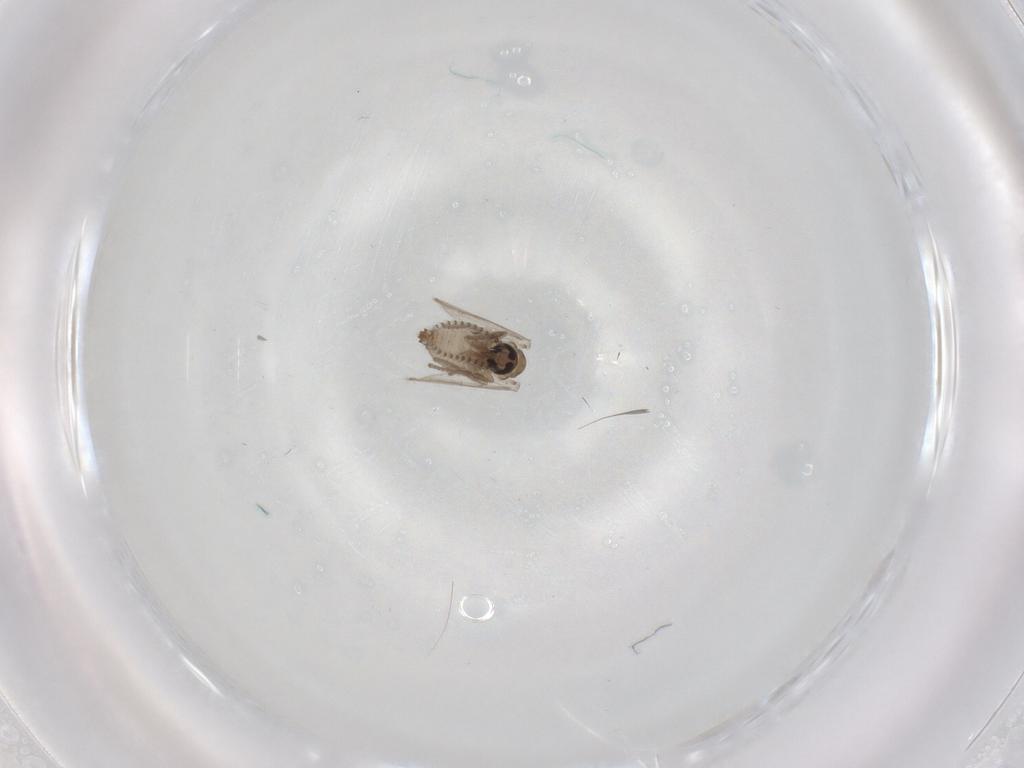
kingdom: Animalia
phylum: Arthropoda
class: Insecta
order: Diptera
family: Psychodidae
